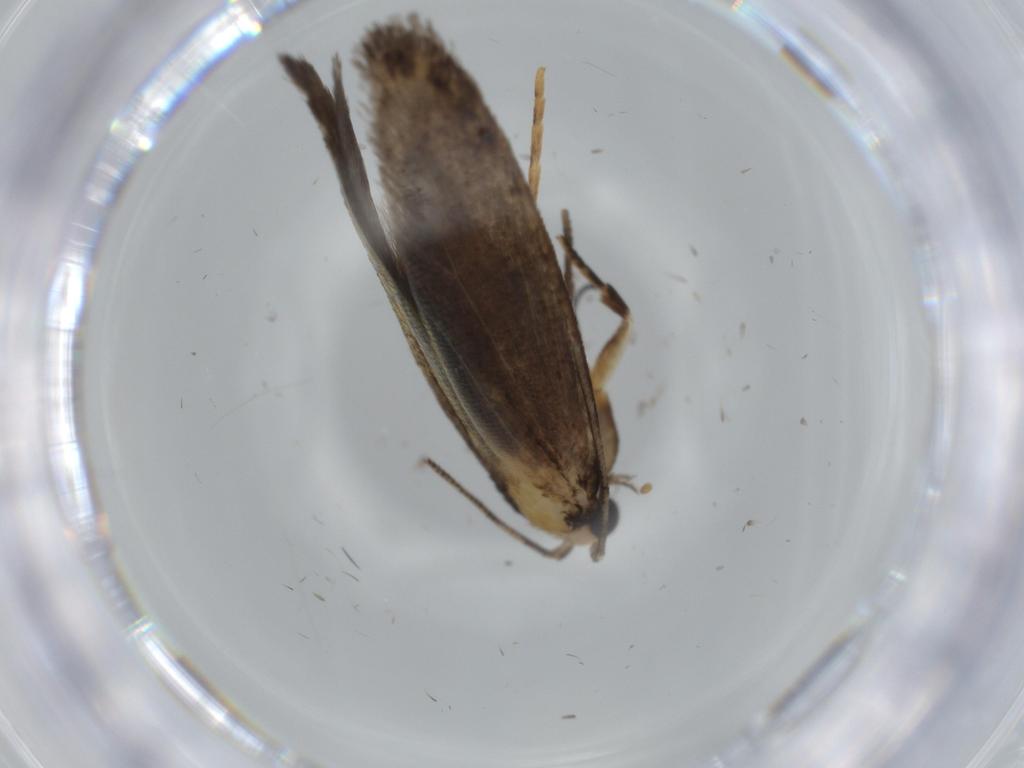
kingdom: Animalia
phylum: Arthropoda
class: Insecta
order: Lepidoptera
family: Tineidae
